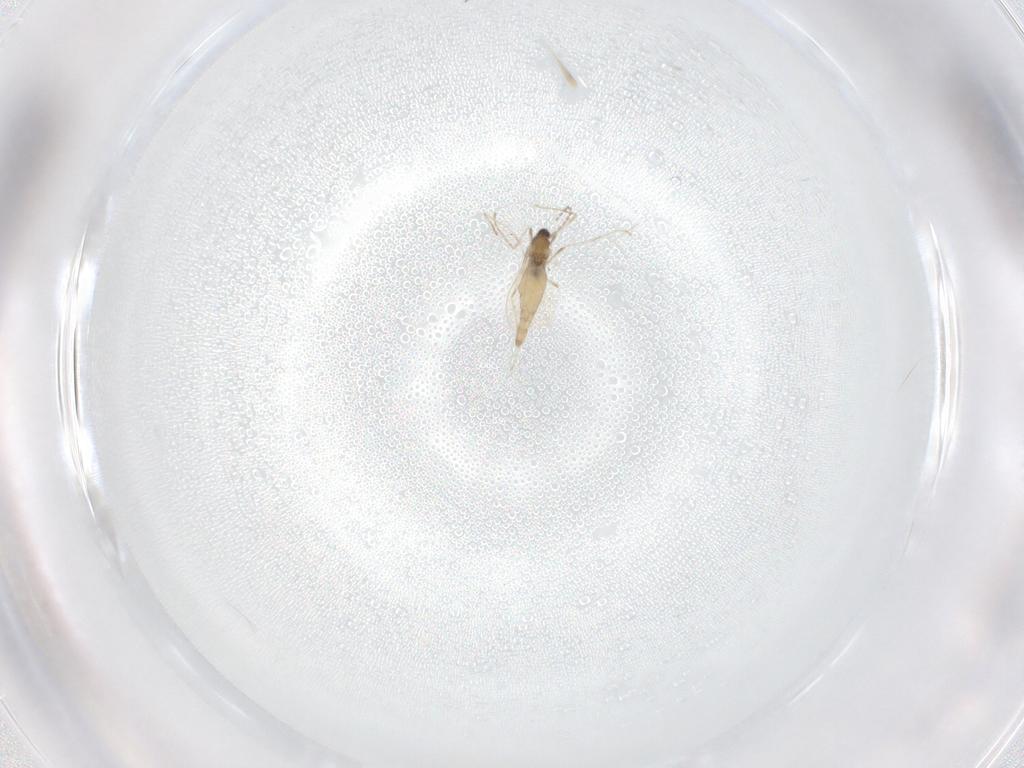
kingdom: Animalia
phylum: Arthropoda
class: Insecta
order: Diptera
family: Cecidomyiidae
